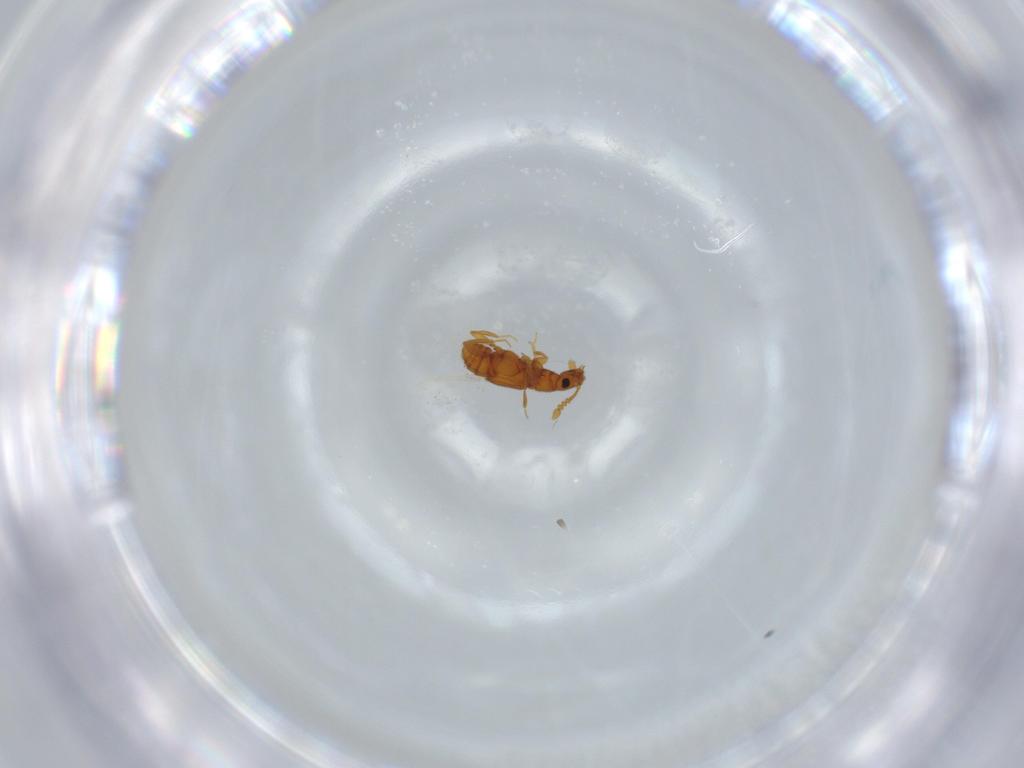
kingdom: Animalia
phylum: Arthropoda
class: Insecta
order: Coleoptera
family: Staphylinidae
